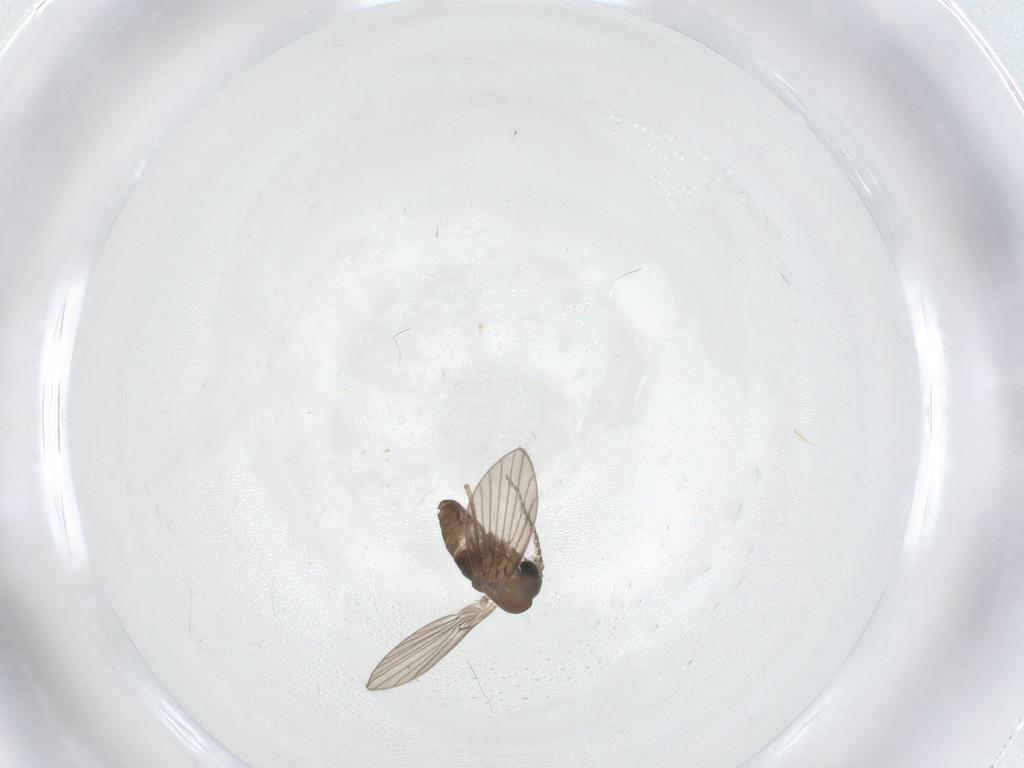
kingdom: Animalia
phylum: Arthropoda
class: Insecta
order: Diptera
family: Psychodidae
